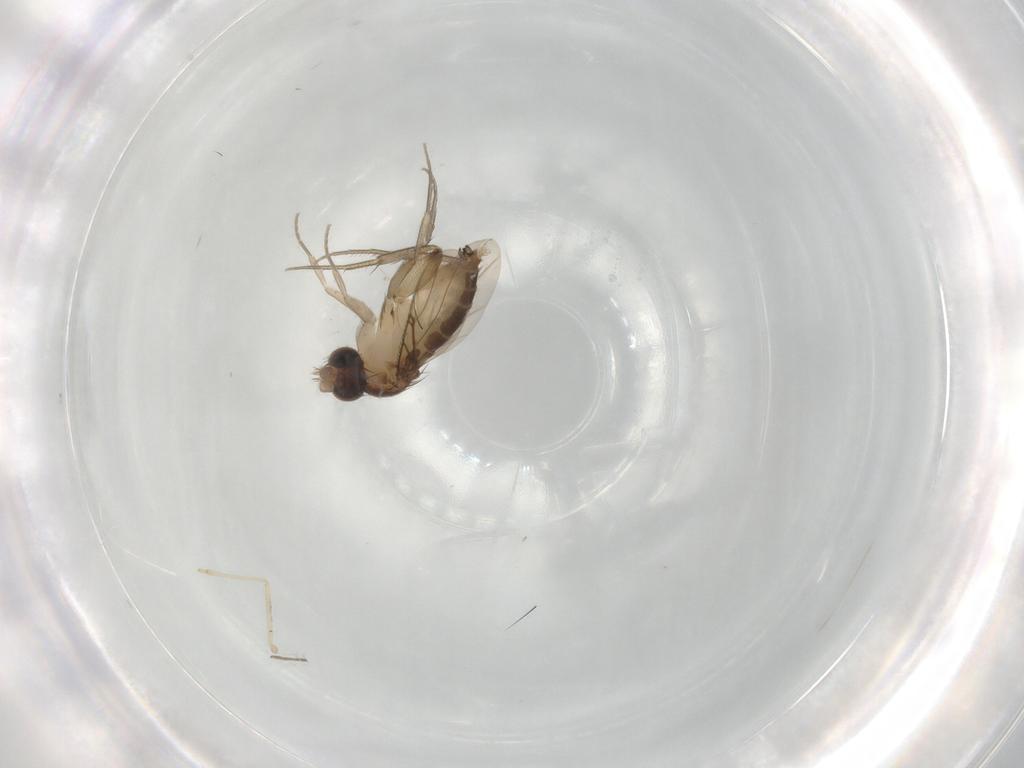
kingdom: Animalia
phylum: Arthropoda
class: Insecta
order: Diptera
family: Phoridae
